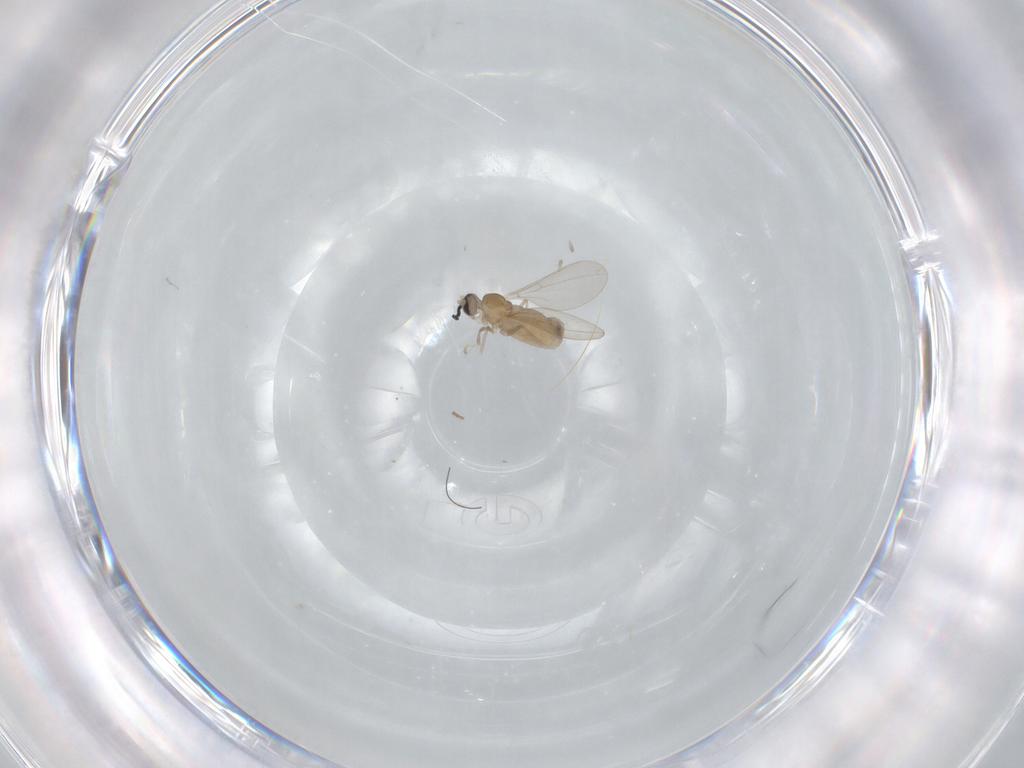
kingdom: Animalia
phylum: Arthropoda
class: Insecta
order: Diptera
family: Cecidomyiidae
